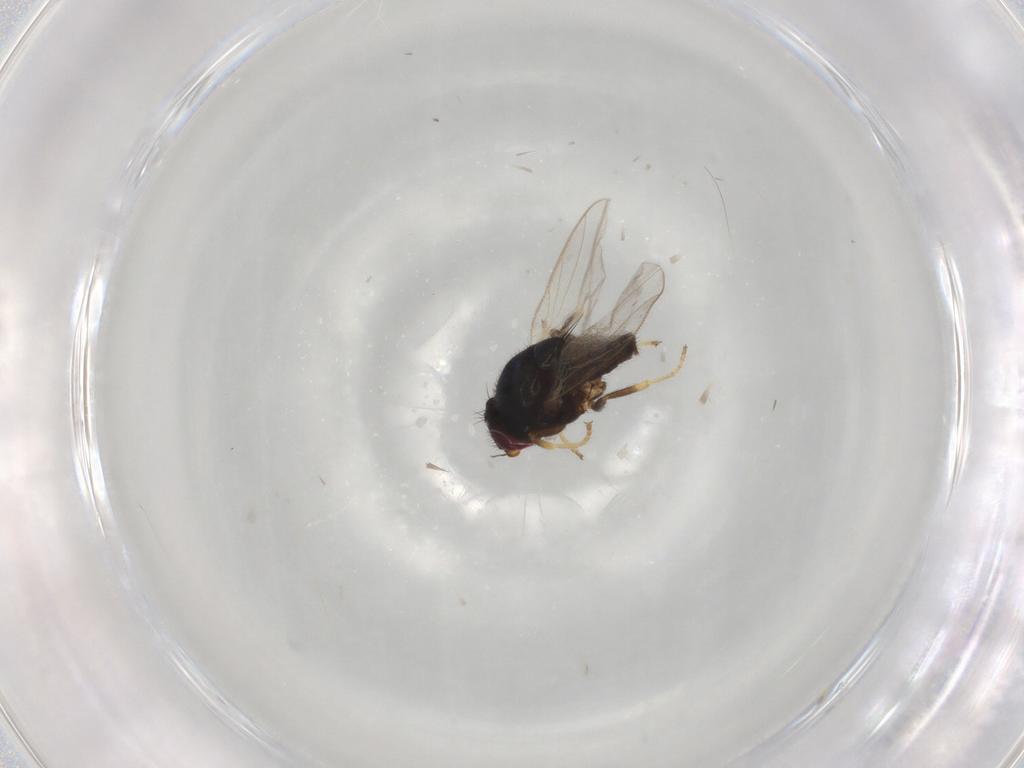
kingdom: Animalia
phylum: Arthropoda
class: Insecta
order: Diptera
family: Chloropidae
